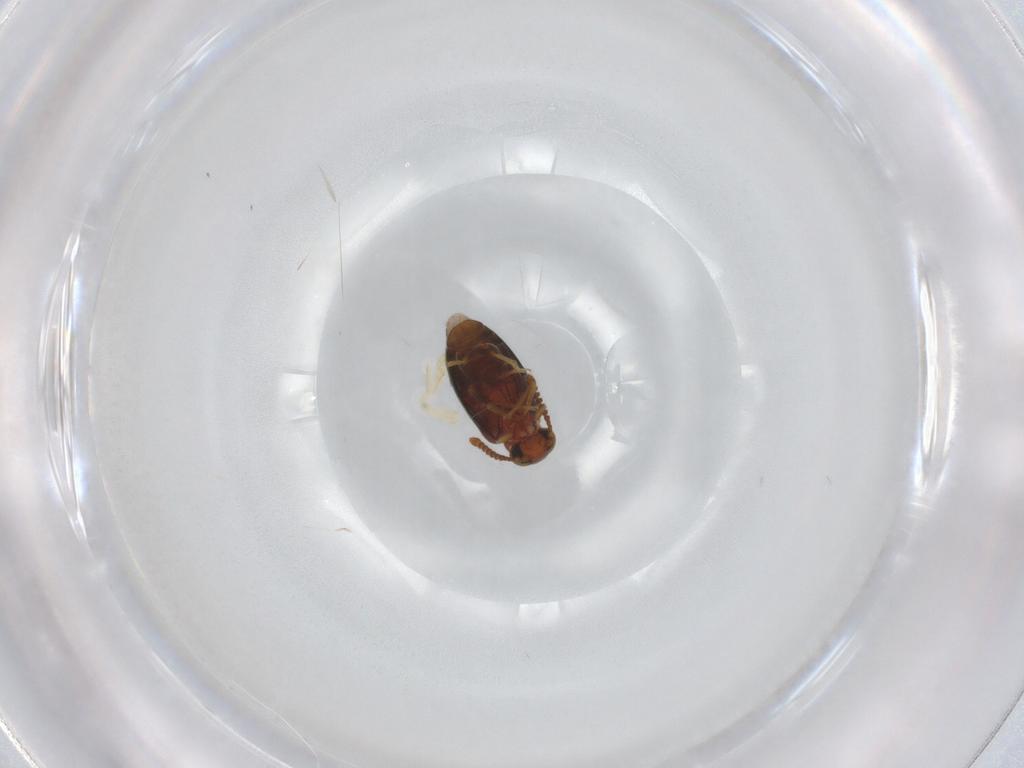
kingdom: Animalia
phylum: Arthropoda
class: Insecta
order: Coleoptera
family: Aderidae
